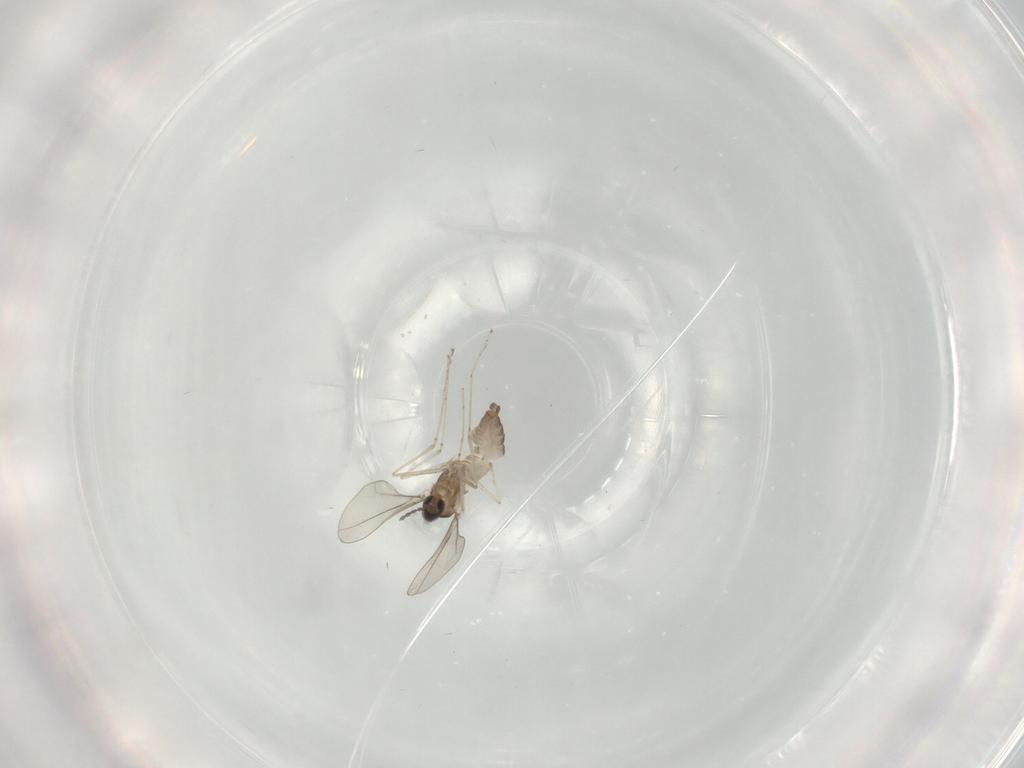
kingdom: Animalia
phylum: Arthropoda
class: Insecta
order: Diptera
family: Cecidomyiidae
